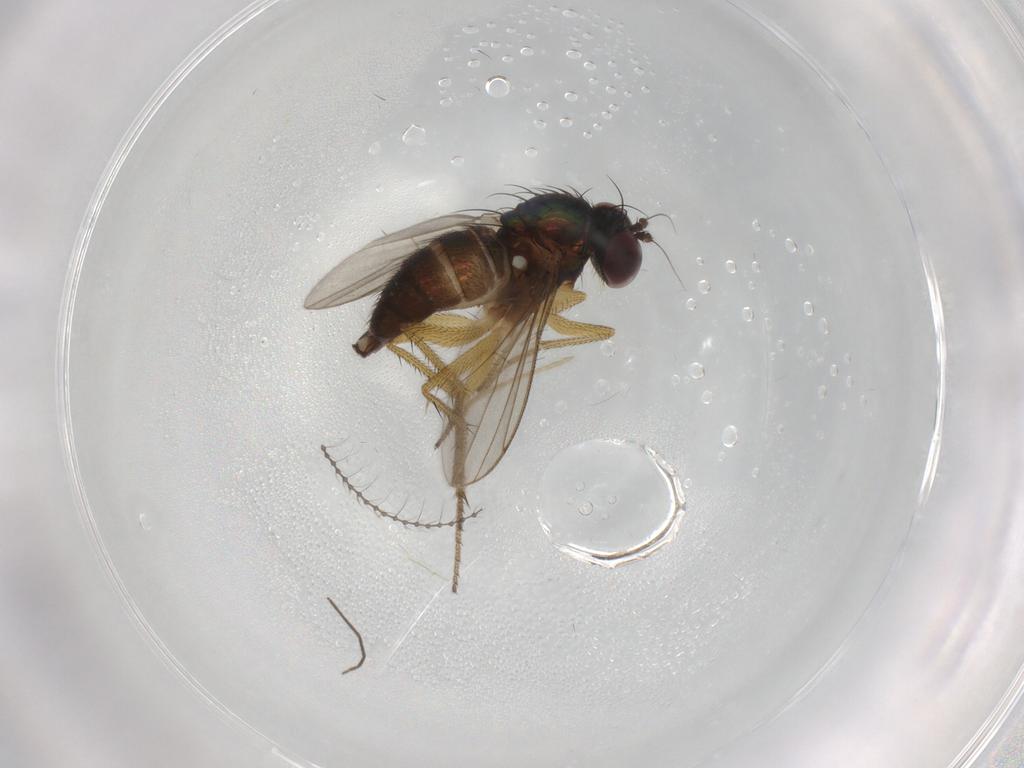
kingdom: Animalia
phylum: Arthropoda
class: Insecta
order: Diptera
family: Chironomidae
